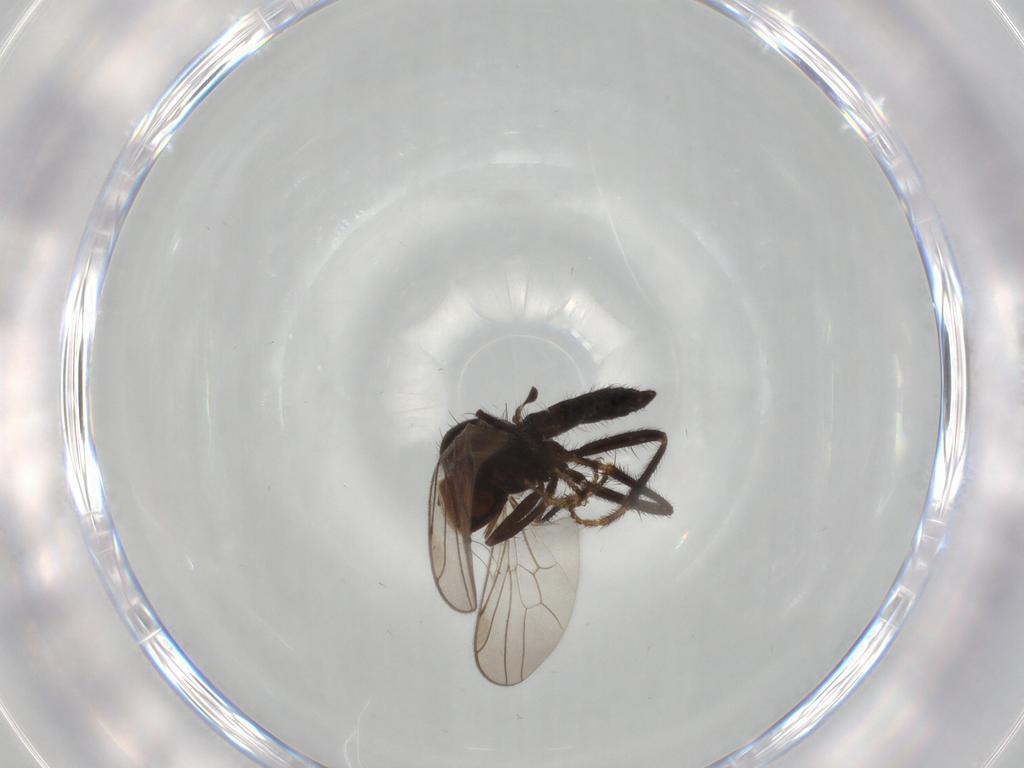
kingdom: Animalia
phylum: Arthropoda
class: Insecta
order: Diptera
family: Hybotidae
